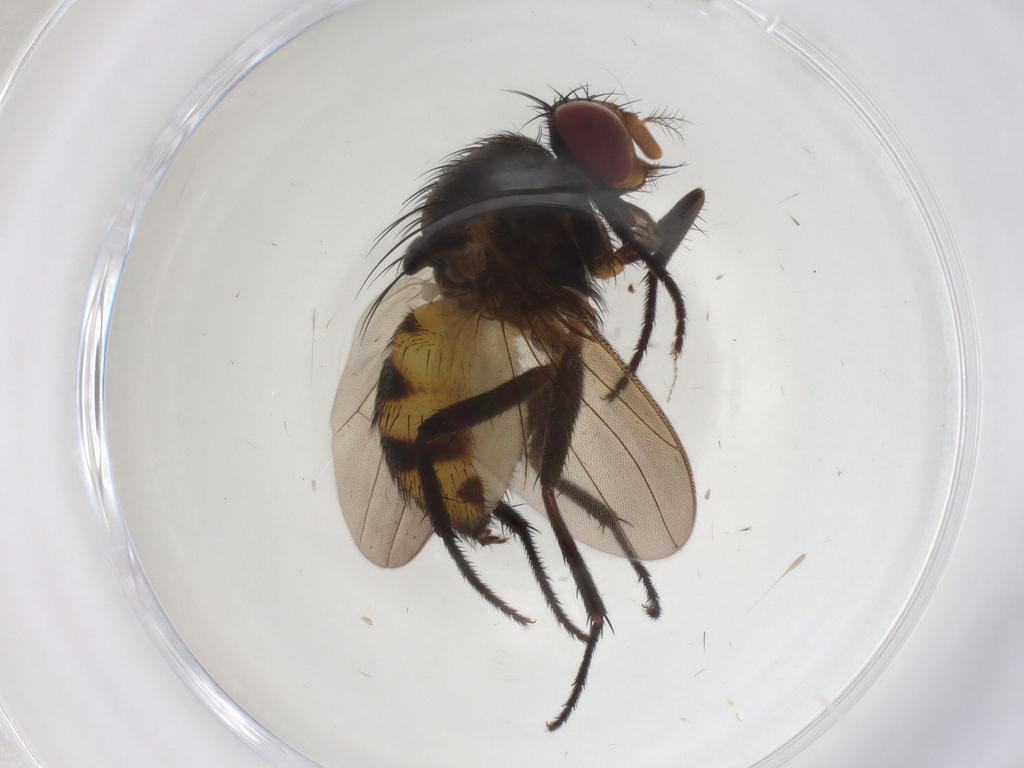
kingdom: Animalia
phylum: Arthropoda
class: Insecta
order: Diptera
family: Anthomyiidae
